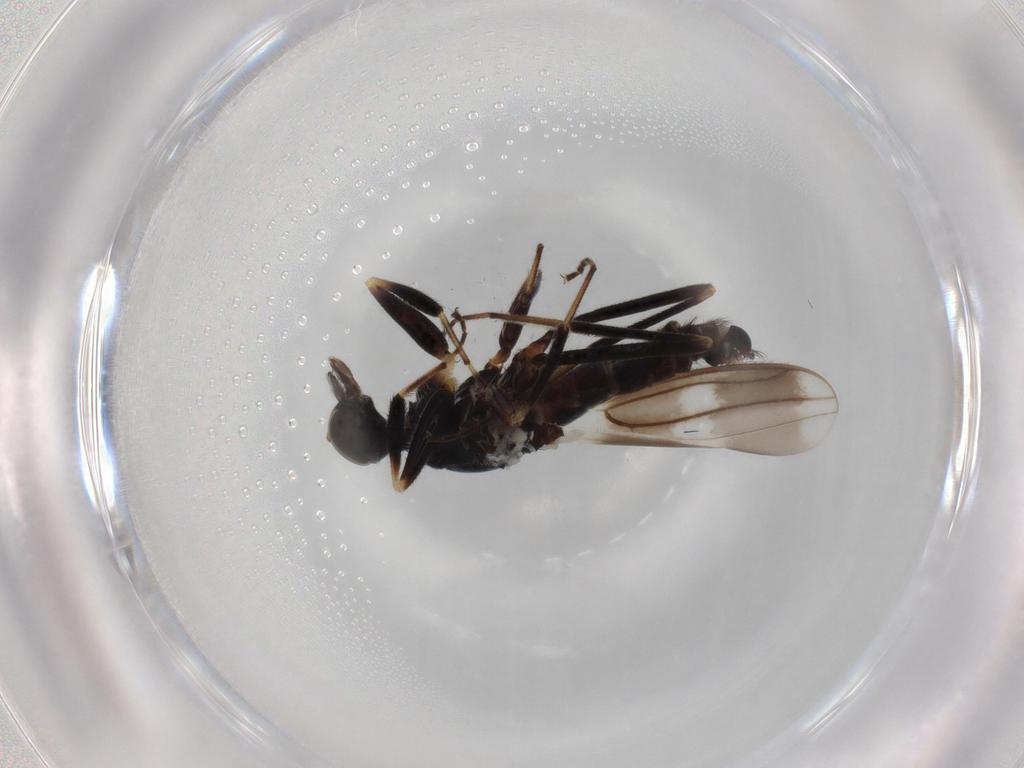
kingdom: Animalia
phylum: Arthropoda
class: Insecta
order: Diptera
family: Hybotidae
